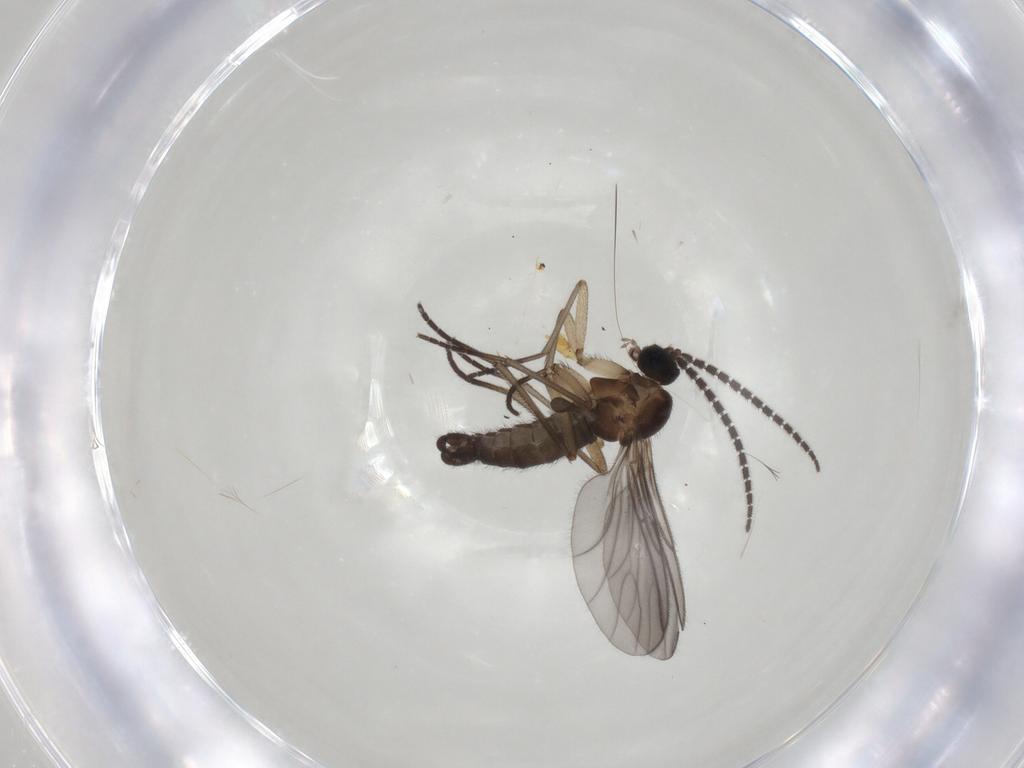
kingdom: Animalia
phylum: Arthropoda
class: Insecta
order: Diptera
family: Sciaridae
